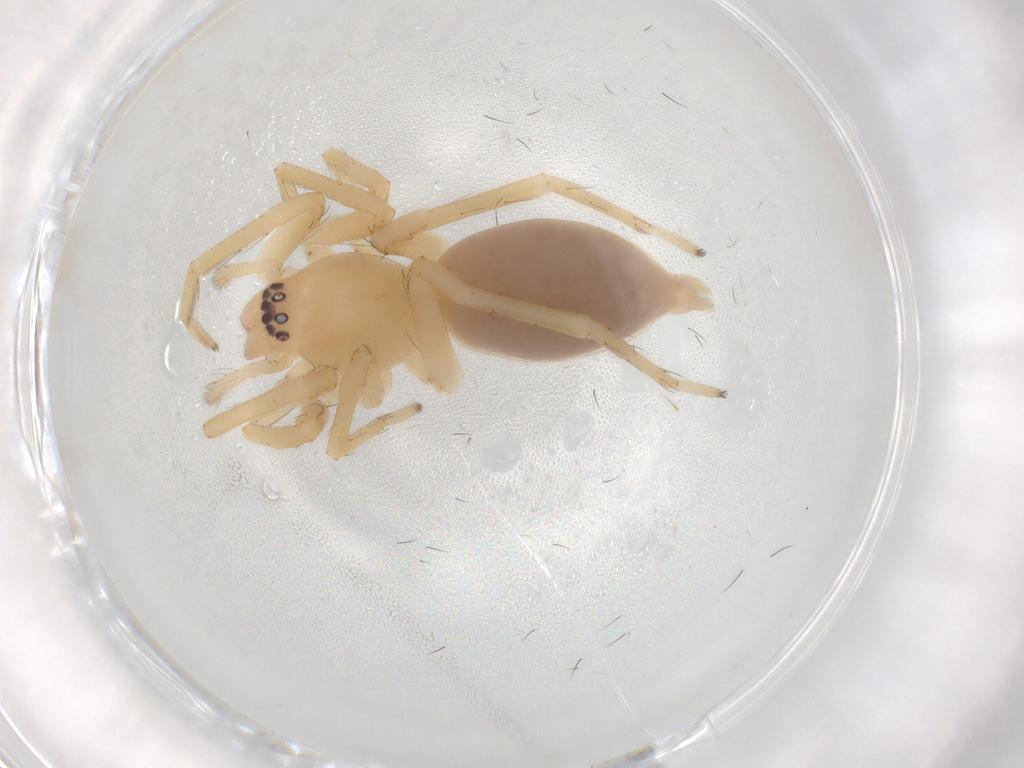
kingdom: Animalia
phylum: Arthropoda
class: Arachnida
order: Araneae
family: Clubionidae
